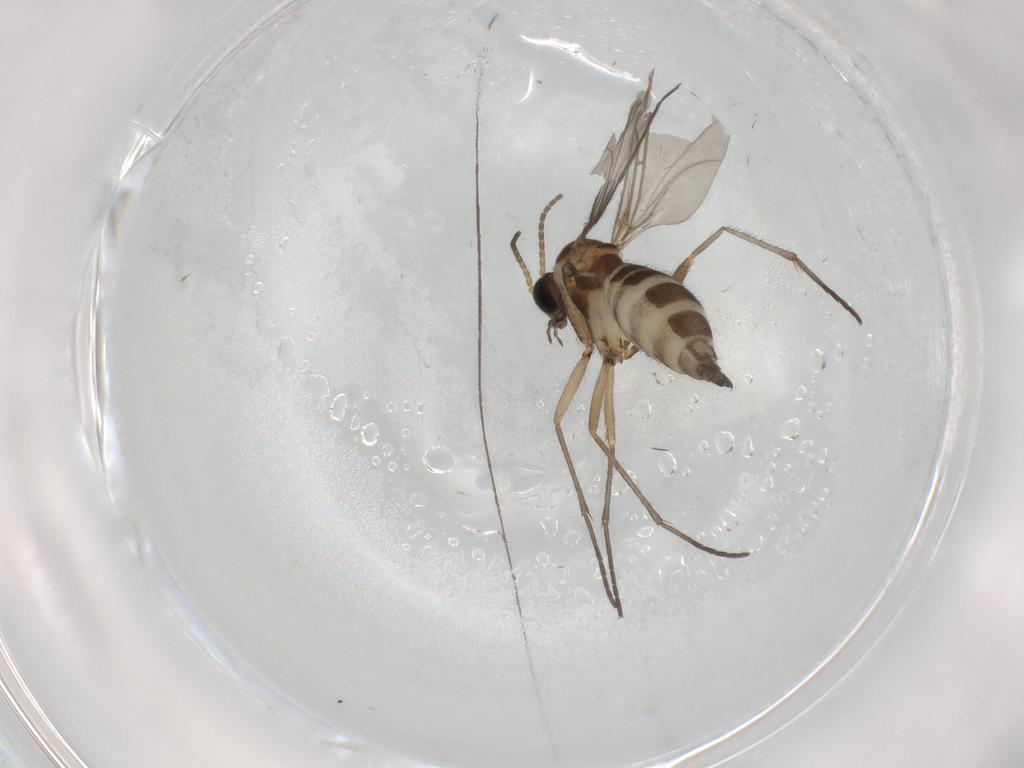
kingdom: Animalia
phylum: Arthropoda
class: Insecta
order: Diptera
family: Sciaridae
